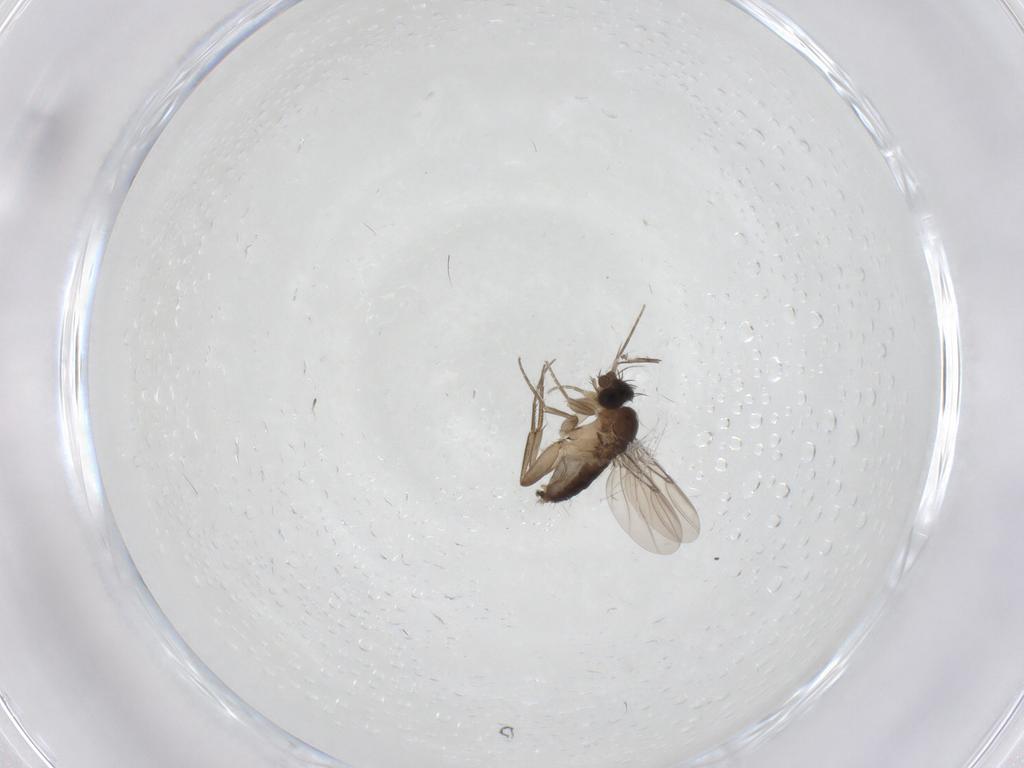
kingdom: Animalia
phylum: Arthropoda
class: Insecta
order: Diptera
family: Phoridae
